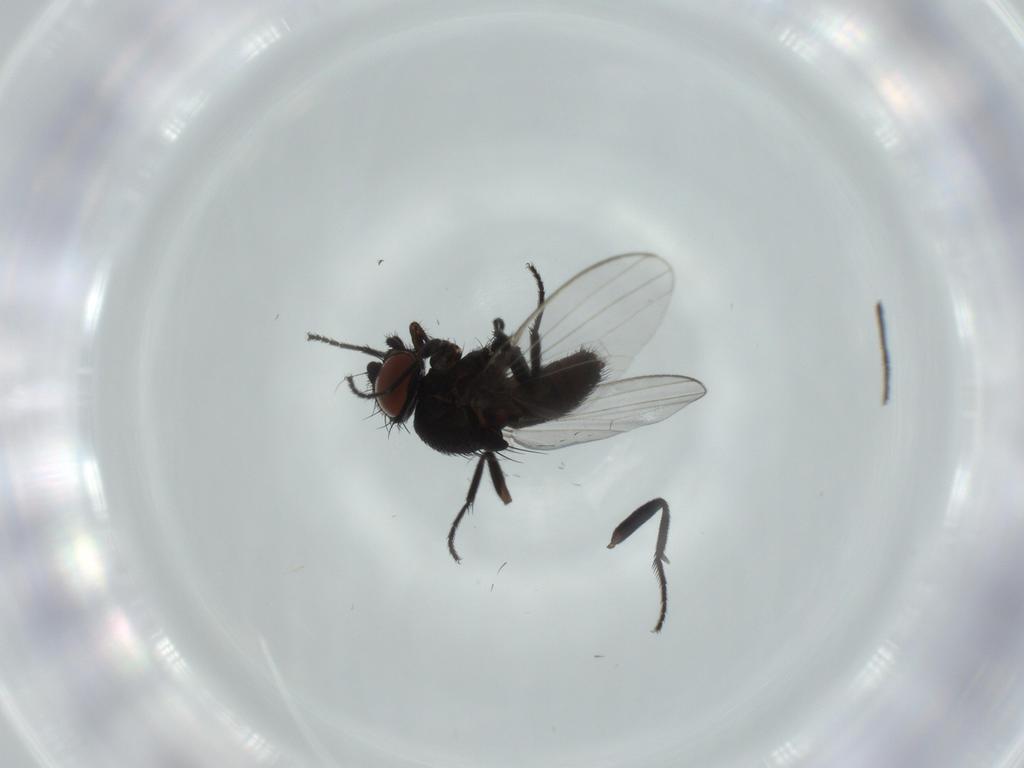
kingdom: Animalia
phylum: Arthropoda
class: Insecta
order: Diptera
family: Milichiidae
